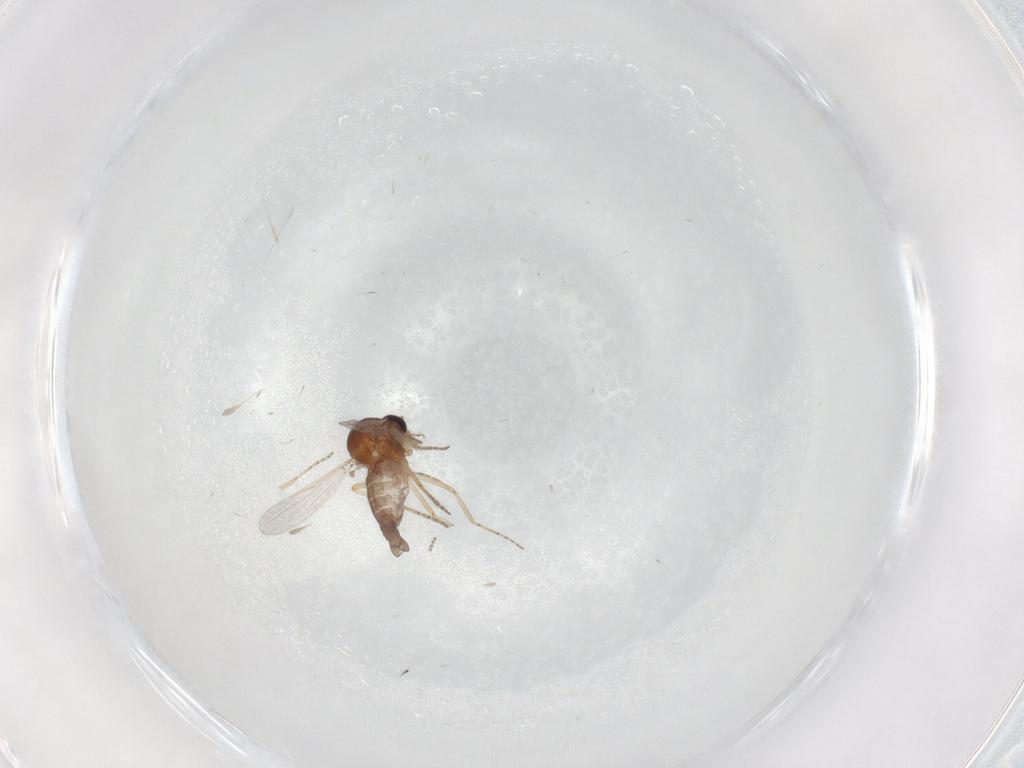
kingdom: Animalia
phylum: Arthropoda
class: Insecta
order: Diptera
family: Ceratopogonidae
